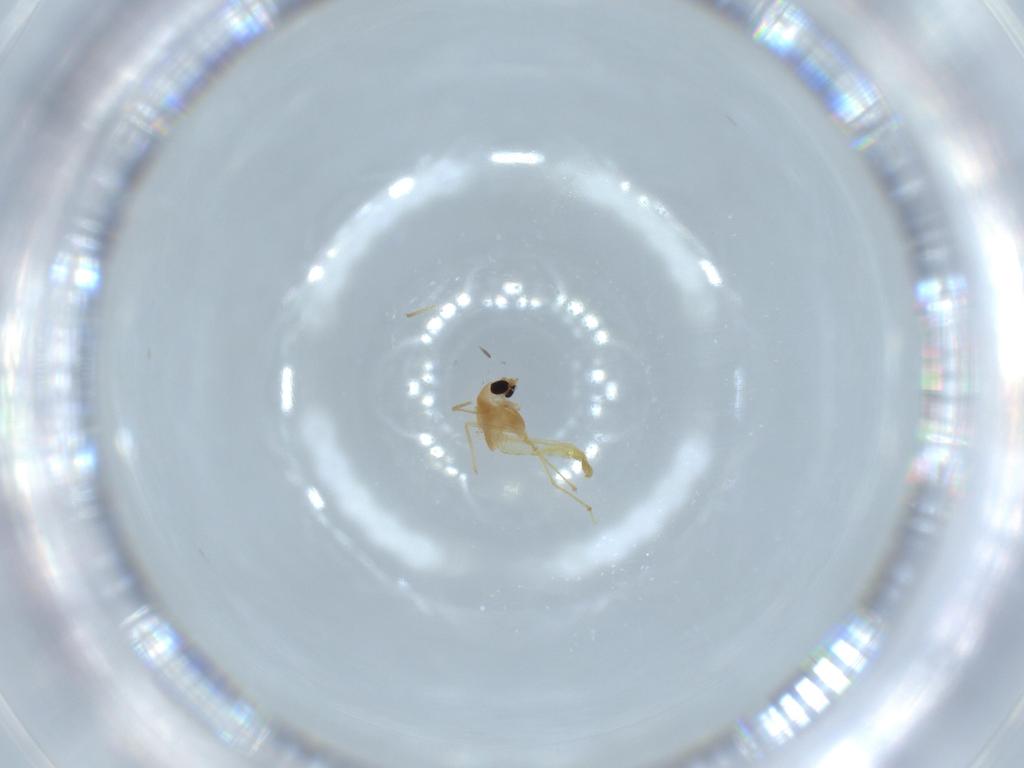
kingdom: Animalia
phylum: Arthropoda
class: Insecta
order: Diptera
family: Chironomidae
